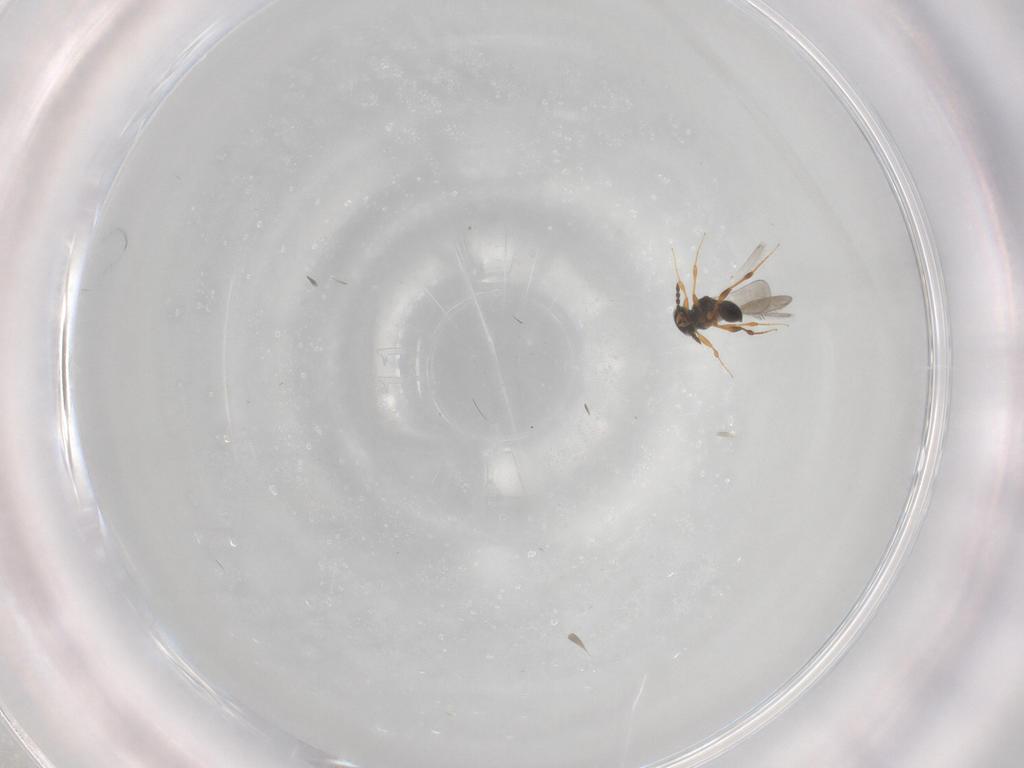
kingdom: Animalia
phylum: Arthropoda
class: Insecta
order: Hymenoptera
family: Platygastridae
